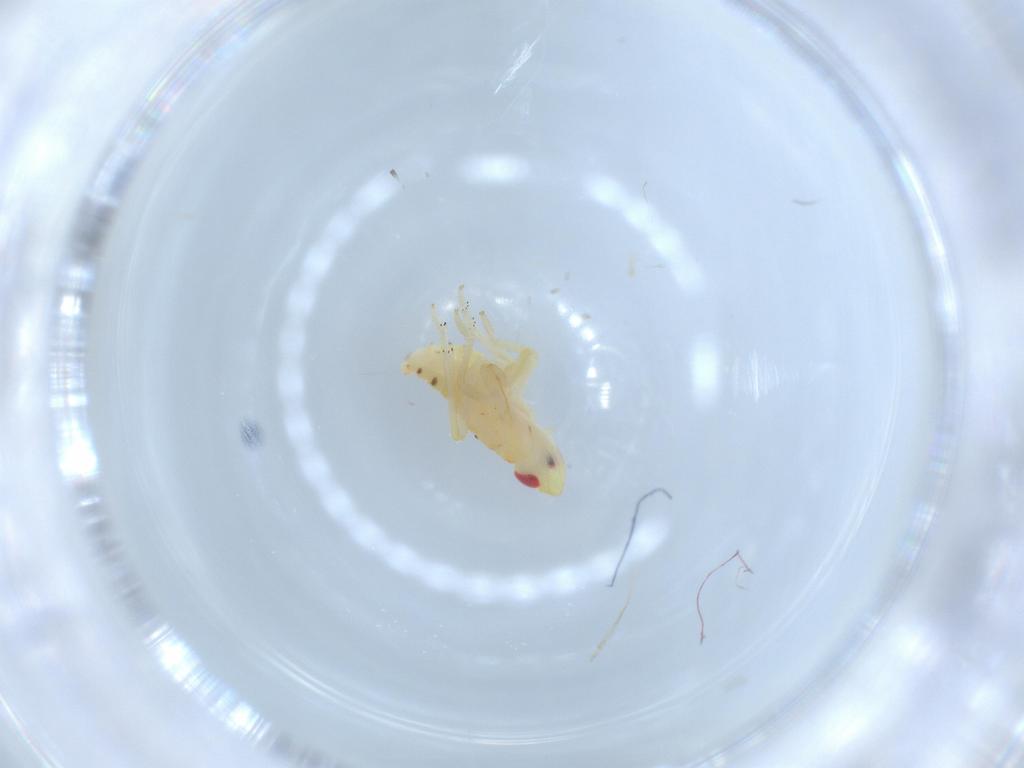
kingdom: Animalia
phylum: Arthropoda
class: Insecta
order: Hemiptera
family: Tropiduchidae
